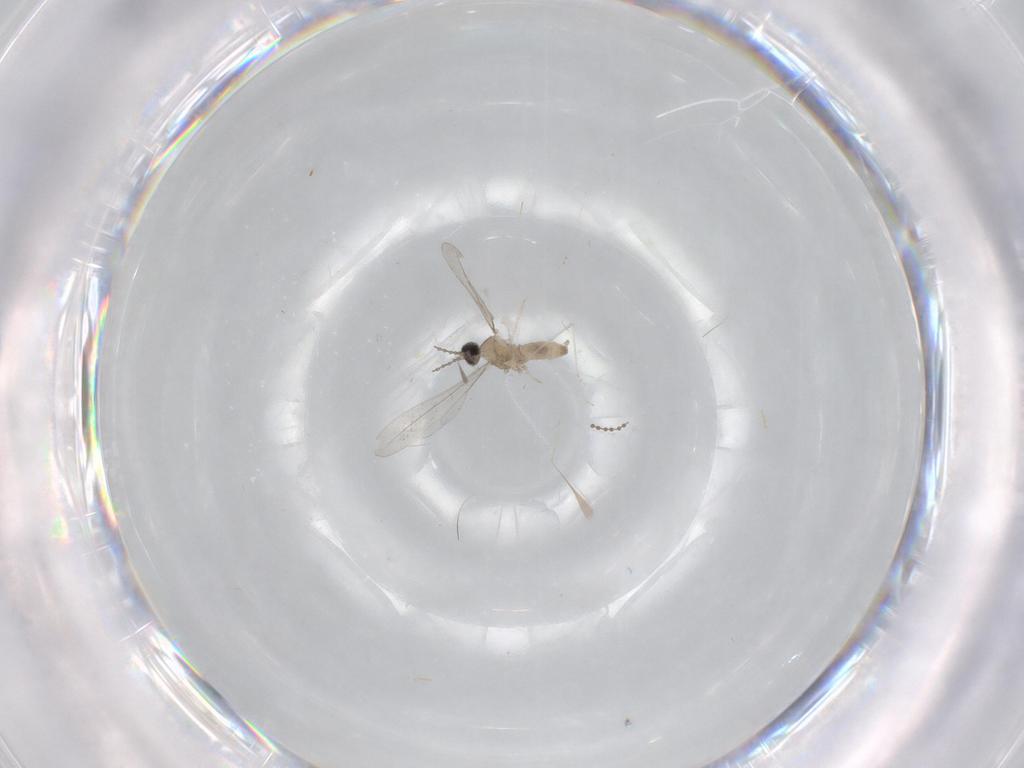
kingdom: Animalia
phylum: Arthropoda
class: Insecta
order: Diptera
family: Cecidomyiidae
